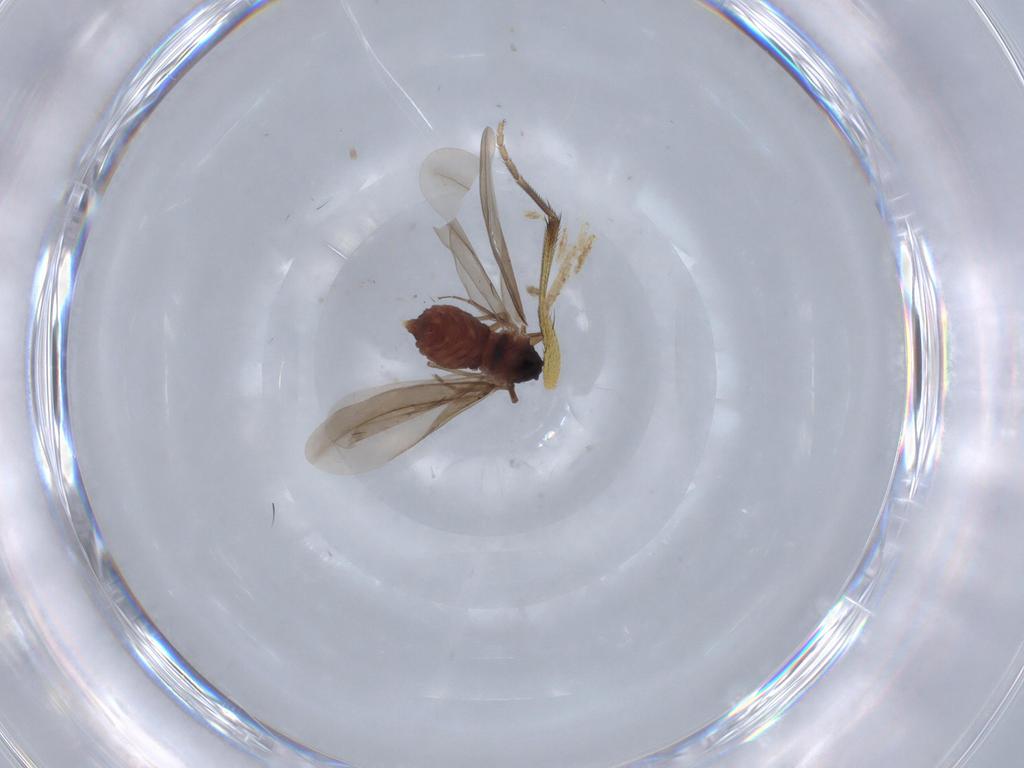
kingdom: Animalia
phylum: Arthropoda
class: Insecta
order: Hemiptera
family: Aleyrodidae
